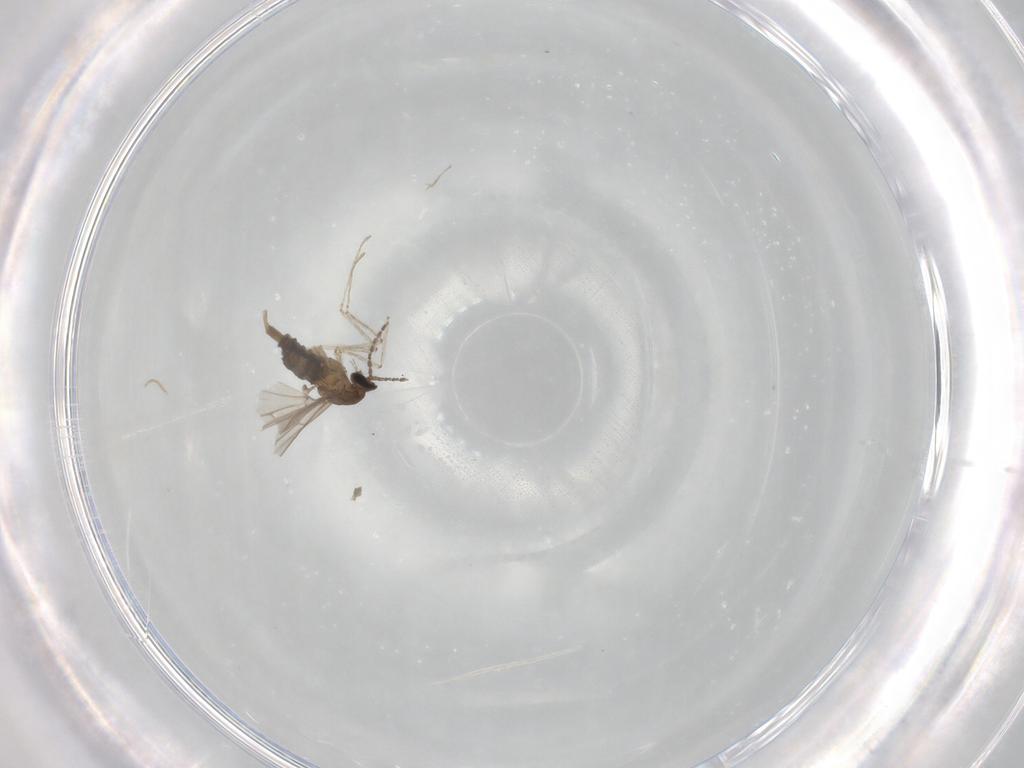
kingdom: Animalia
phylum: Arthropoda
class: Insecta
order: Diptera
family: Cecidomyiidae
